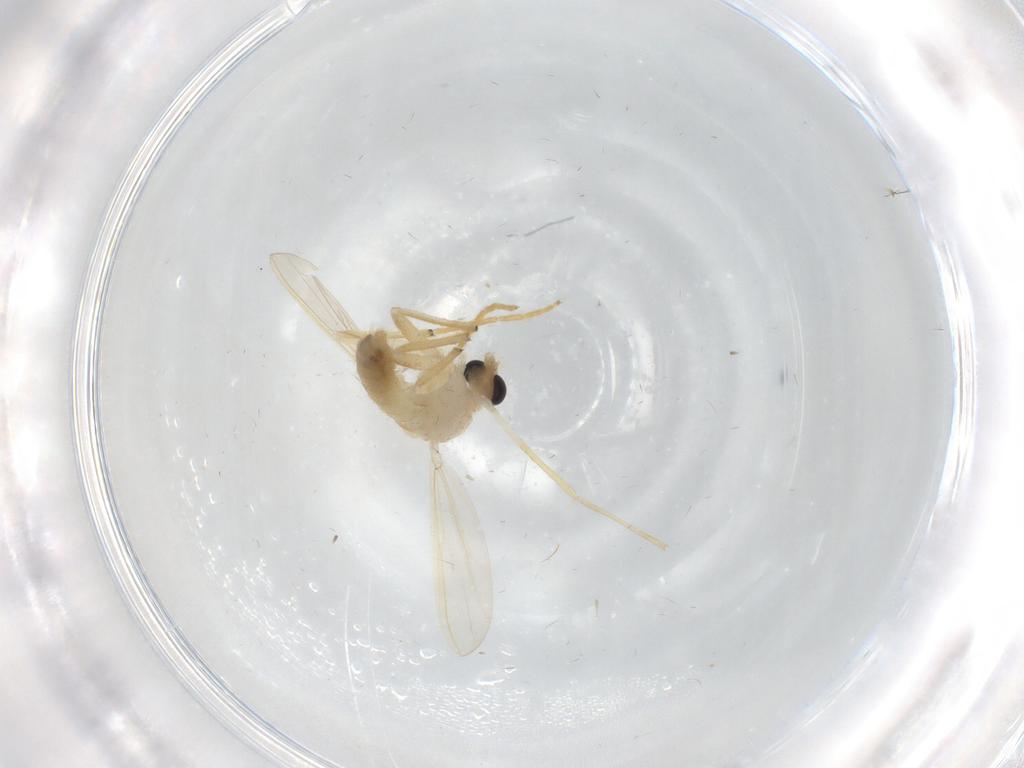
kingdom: Animalia
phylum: Arthropoda
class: Insecta
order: Diptera
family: Chironomidae
